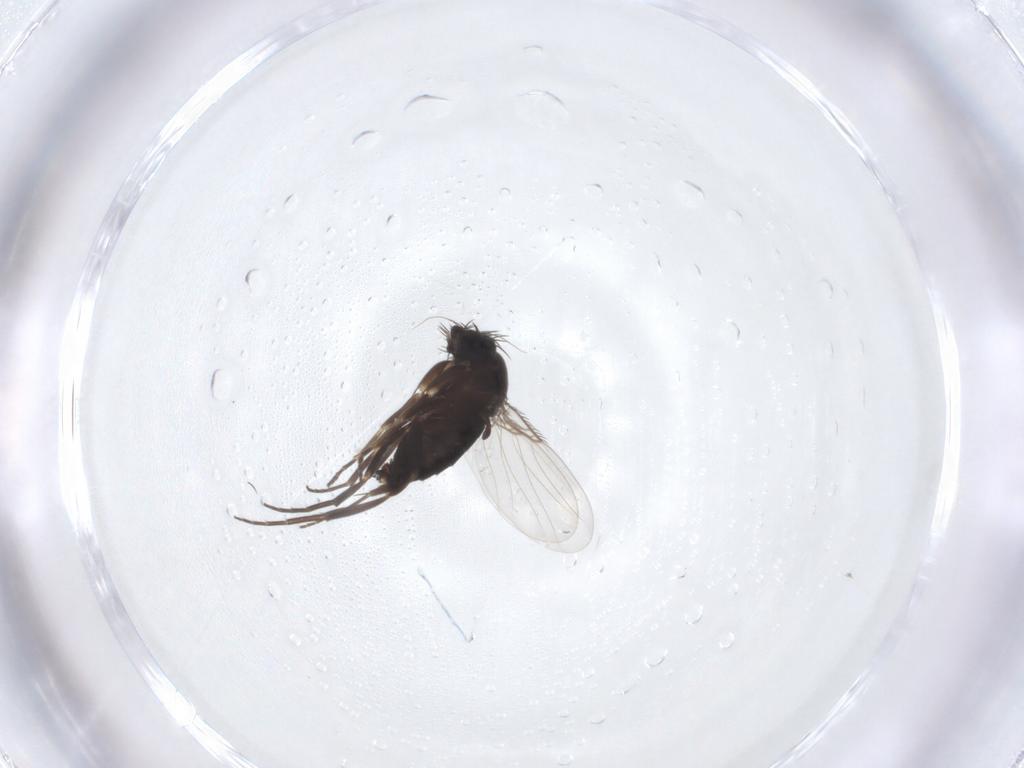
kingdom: Animalia
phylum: Arthropoda
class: Insecta
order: Diptera
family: Phoridae
